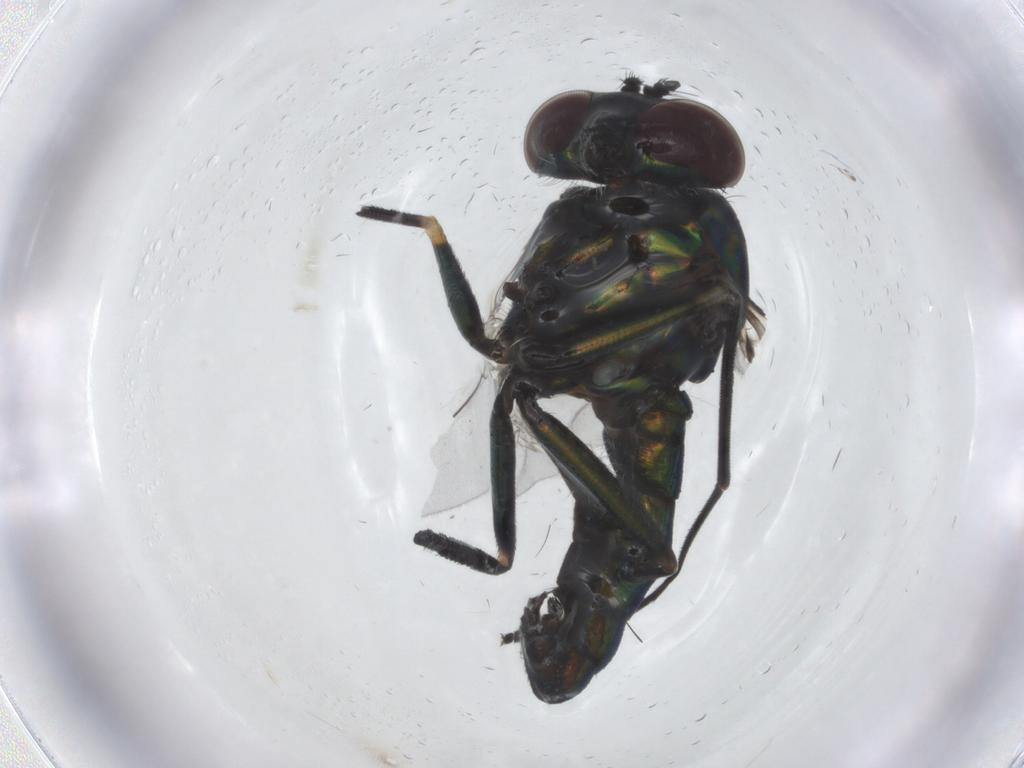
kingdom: Animalia
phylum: Arthropoda
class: Insecta
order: Diptera
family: Dolichopodidae
